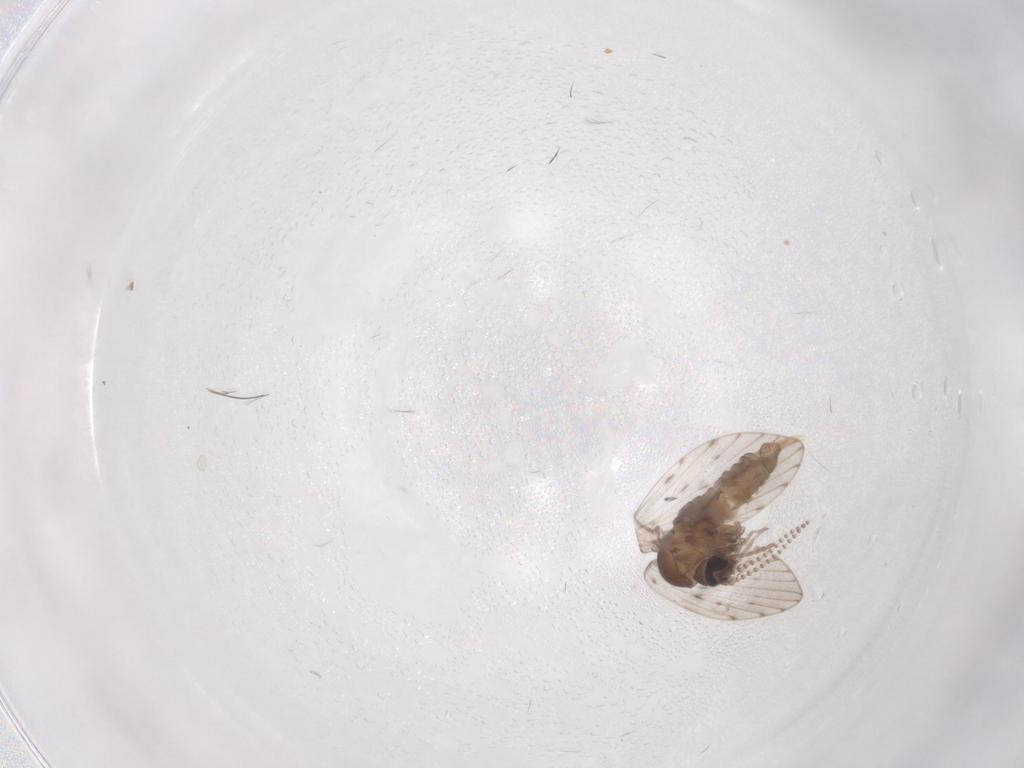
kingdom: Animalia
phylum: Arthropoda
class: Insecta
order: Diptera
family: Psychodidae
